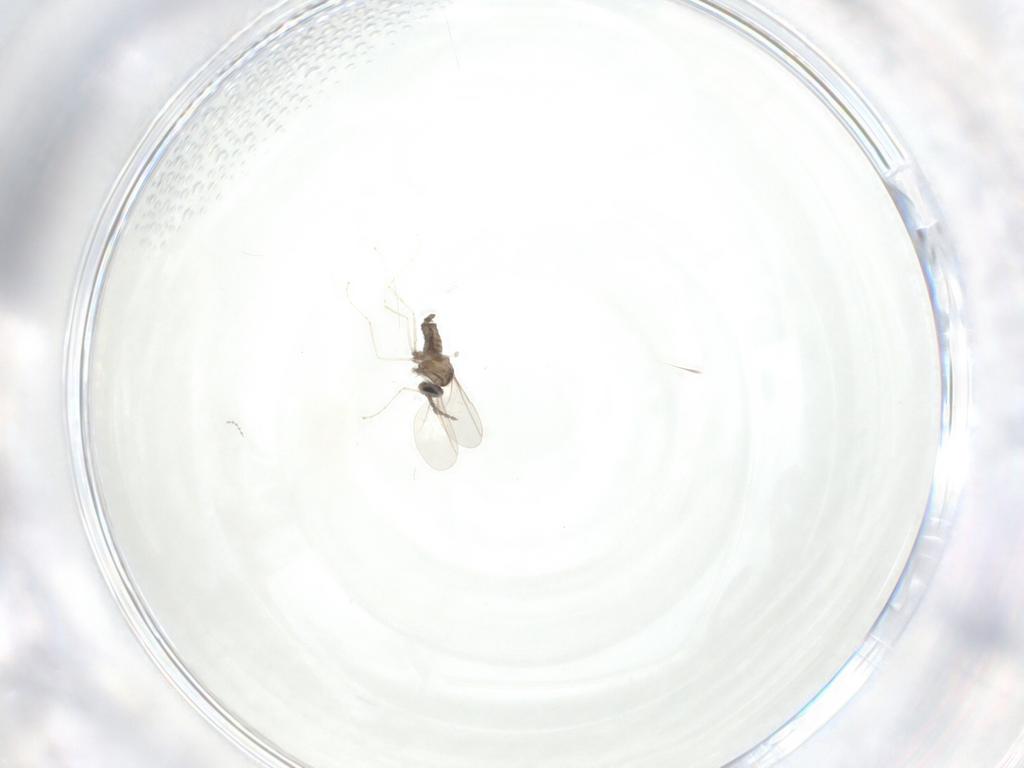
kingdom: Animalia
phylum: Arthropoda
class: Insecta
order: Diptera
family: Cecidomyiidae
